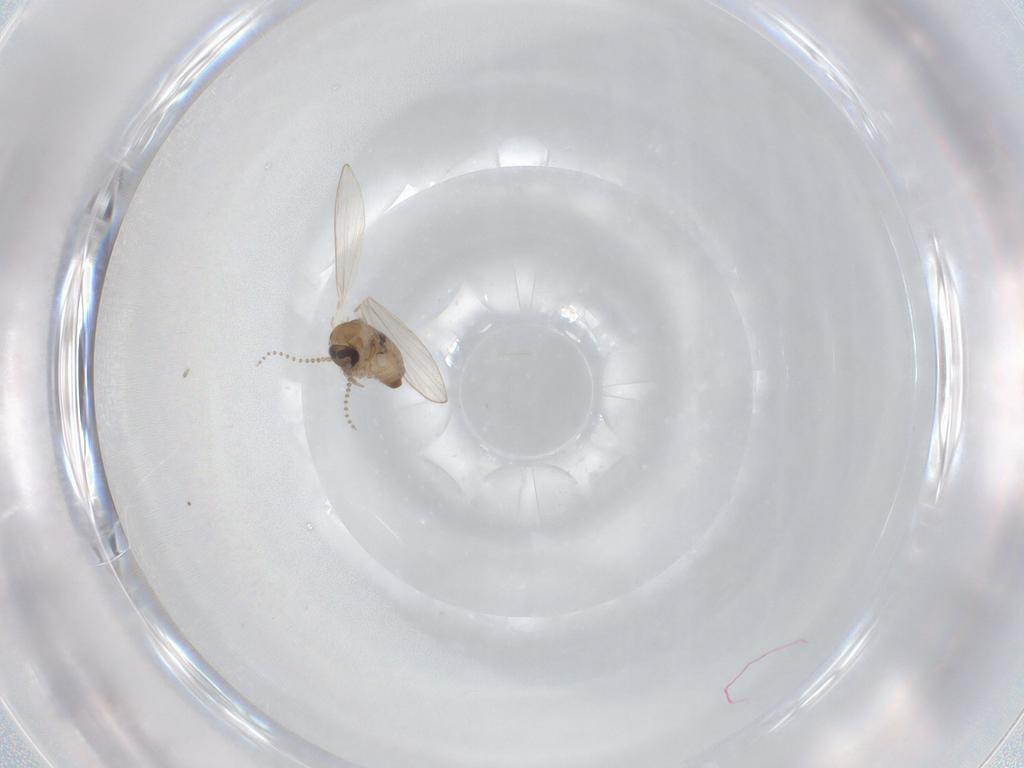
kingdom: Animalia
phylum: Arthropoda
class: Insecta
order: Diptera
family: Psychodidae
